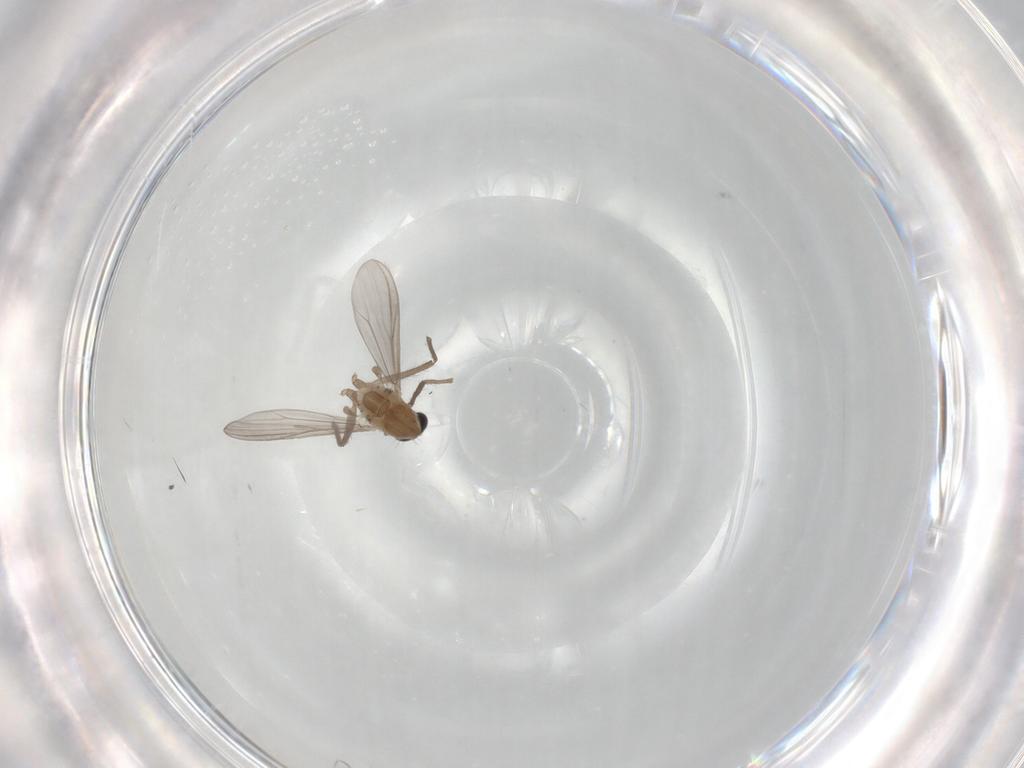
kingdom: Animalia
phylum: Arthropoda
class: Insecta
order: Diptera
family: Chironomidae
